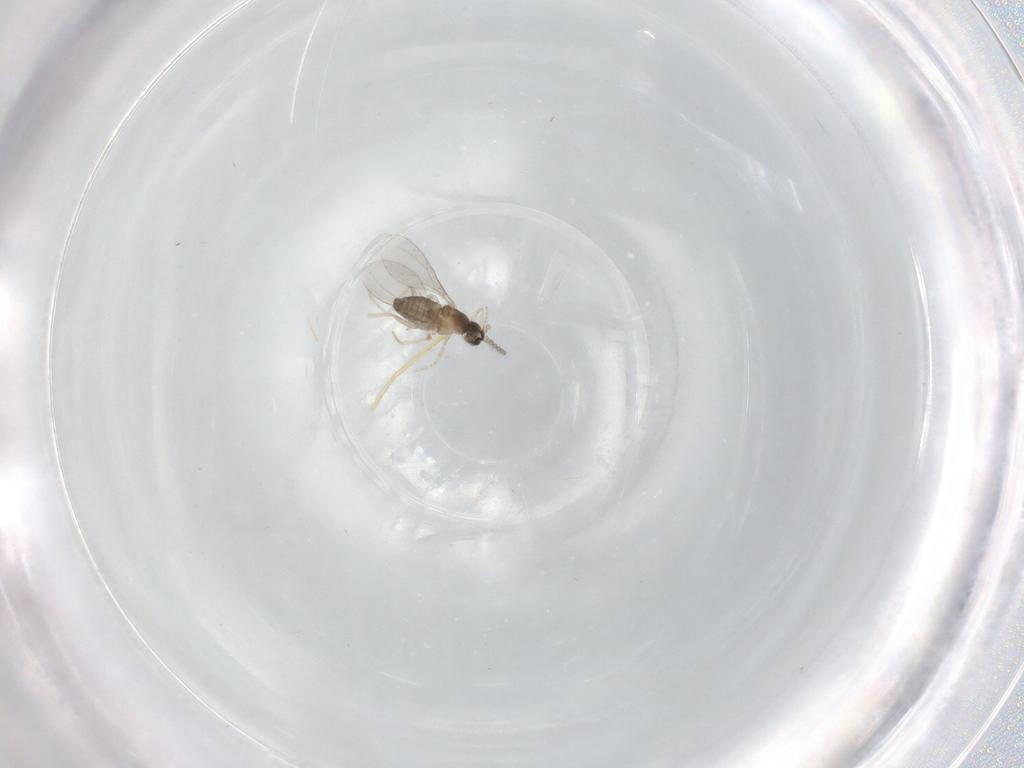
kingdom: Animalia
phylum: Arthropoda
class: Insecta
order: Diptera
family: Cecidomyiidae
